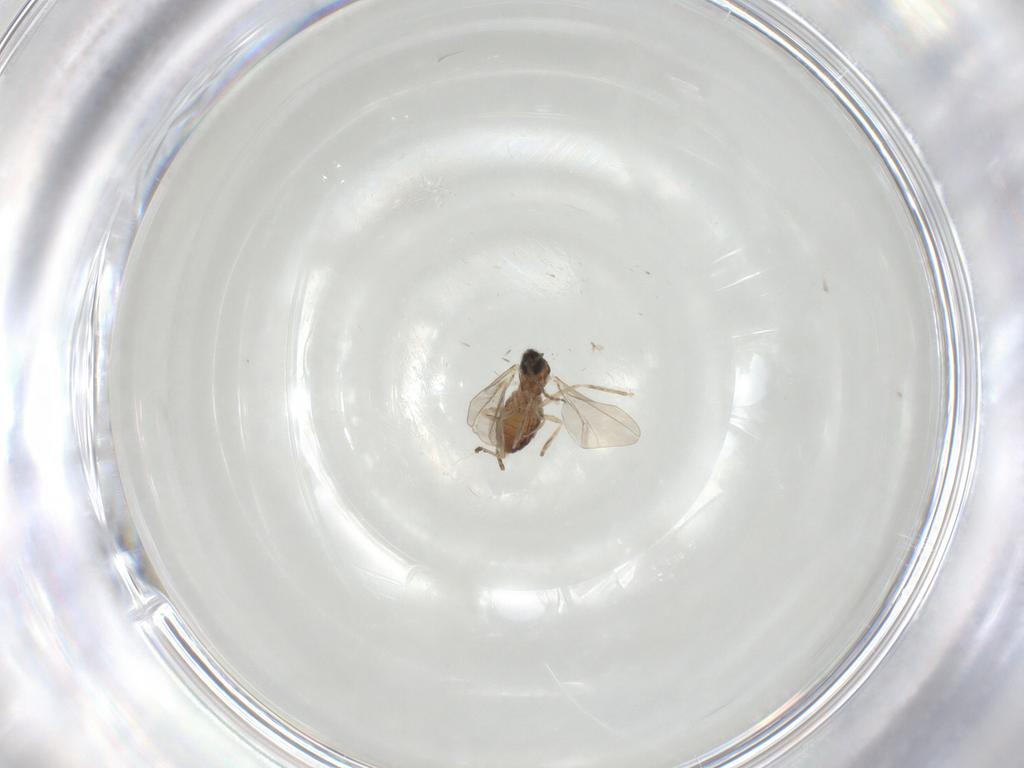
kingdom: Animalia
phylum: Arthropoda
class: Insecta
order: Diptera
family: Cecidomyiidae
